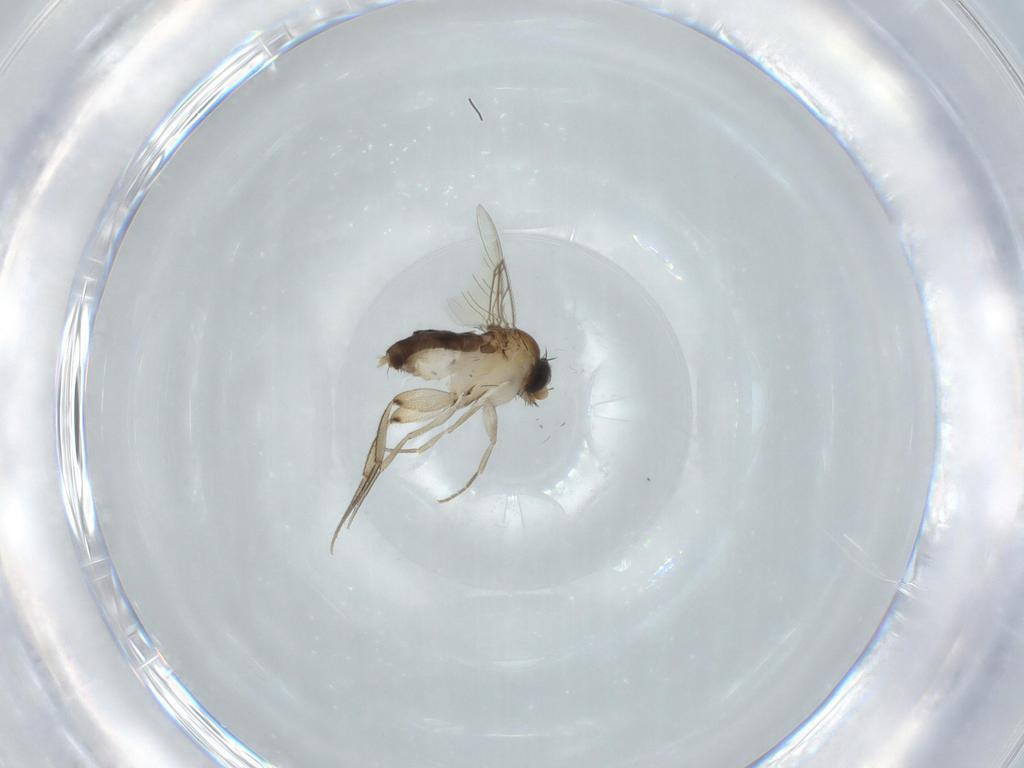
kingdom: Animalia
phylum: Arthropoda
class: Insecta
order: Diptera
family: Phoridae
